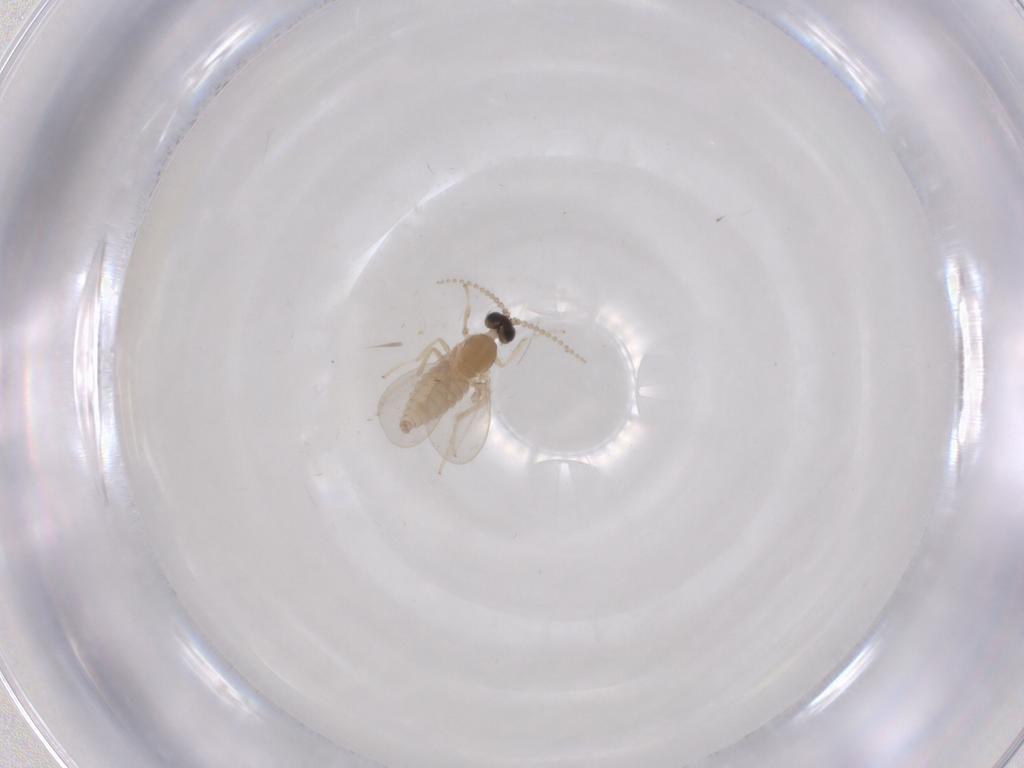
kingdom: Animalia
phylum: Arthropoda
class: Insecta
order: Diptera
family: Cecidomyiidae
